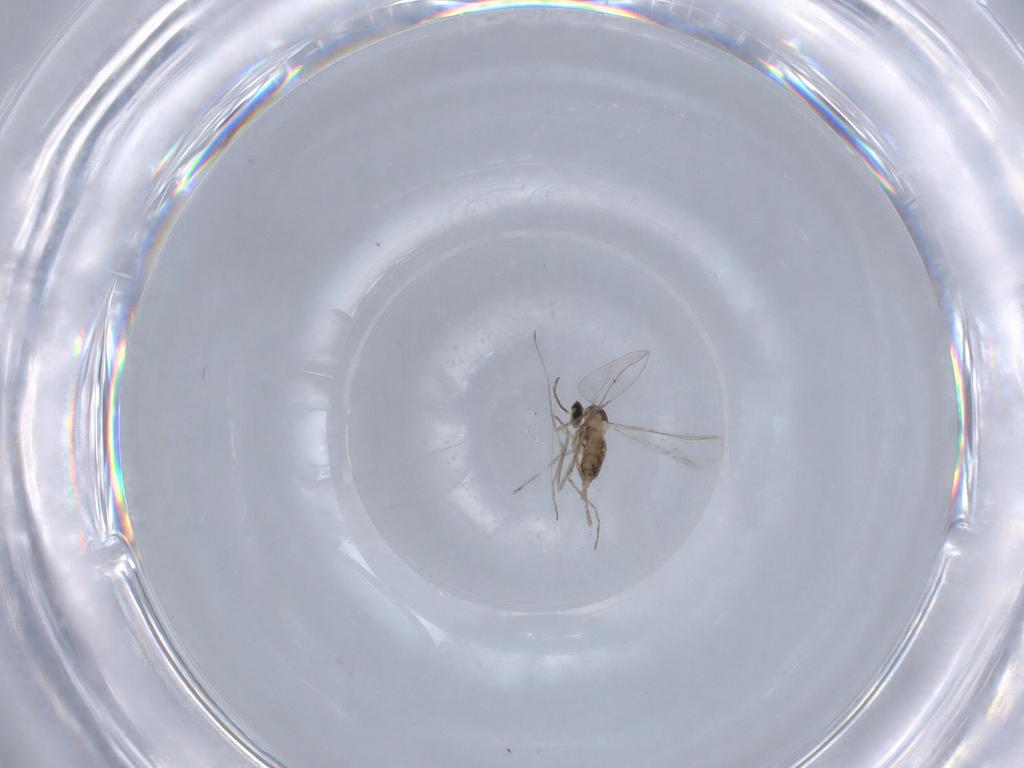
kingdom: Animalia
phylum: Arthropoda
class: Insecta
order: Diptera
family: Cecidomyiidae
